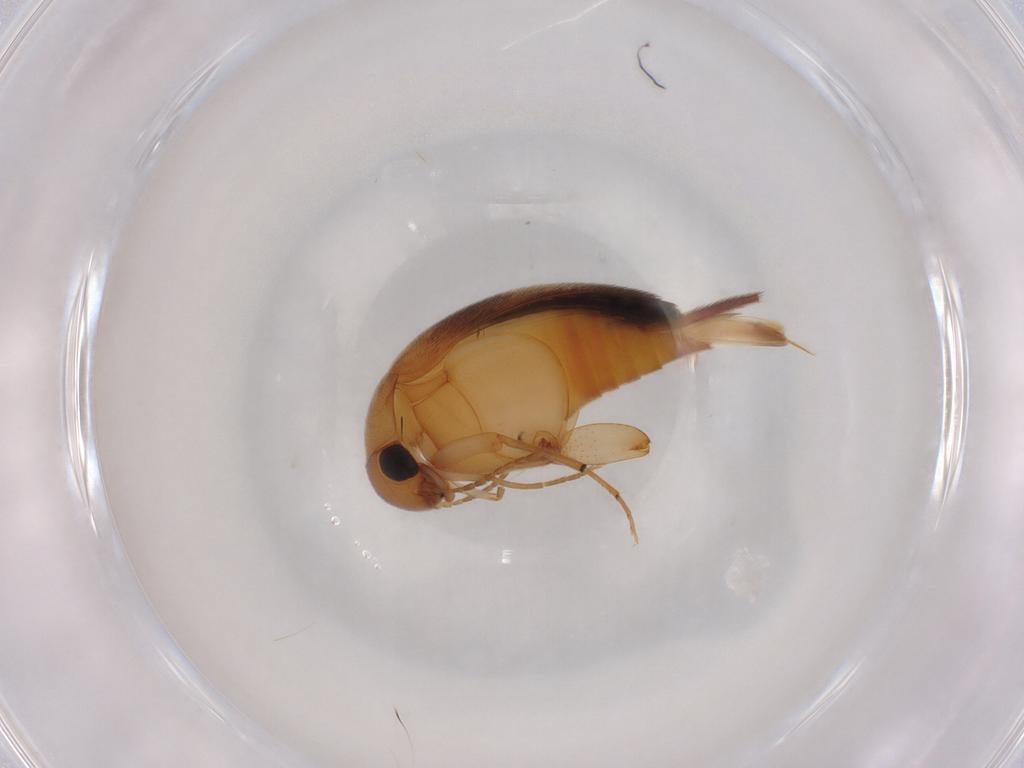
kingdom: Animalia
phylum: Arthropoda
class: Insecta
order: Coleoptera
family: Mordellidae
